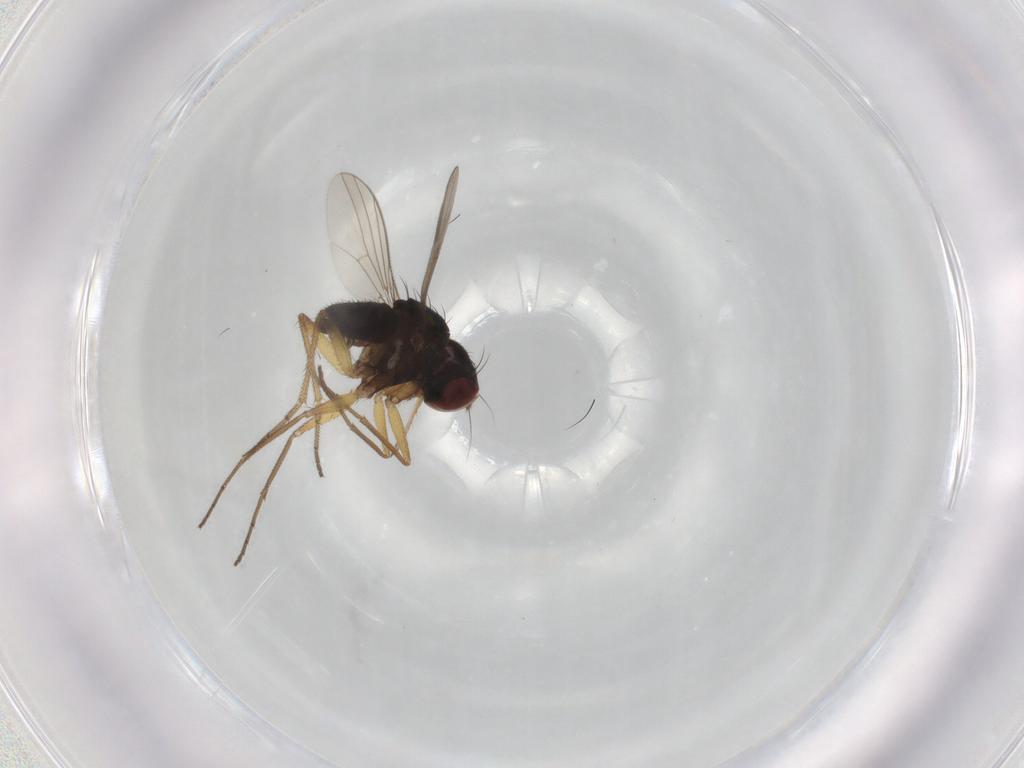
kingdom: Animalia
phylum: Arthropoda
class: Insecta
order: Diptera
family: Dolichopodidae
